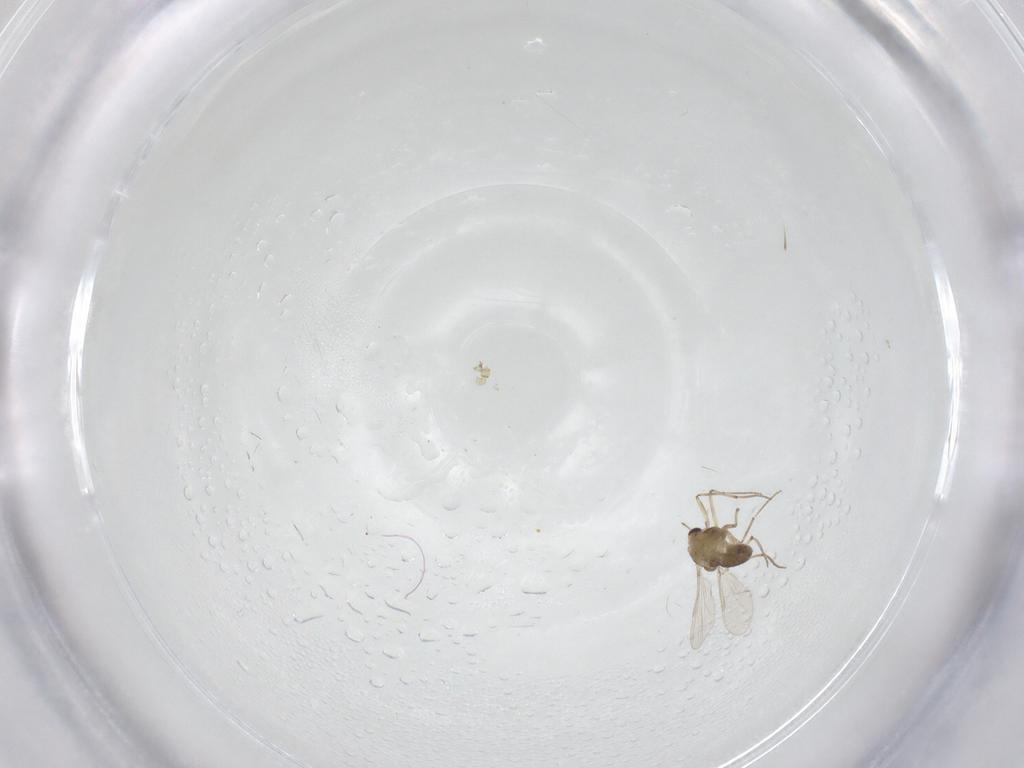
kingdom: Animalia
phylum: Arthropoda
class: Insecta
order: Diptera
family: Chironomidae
